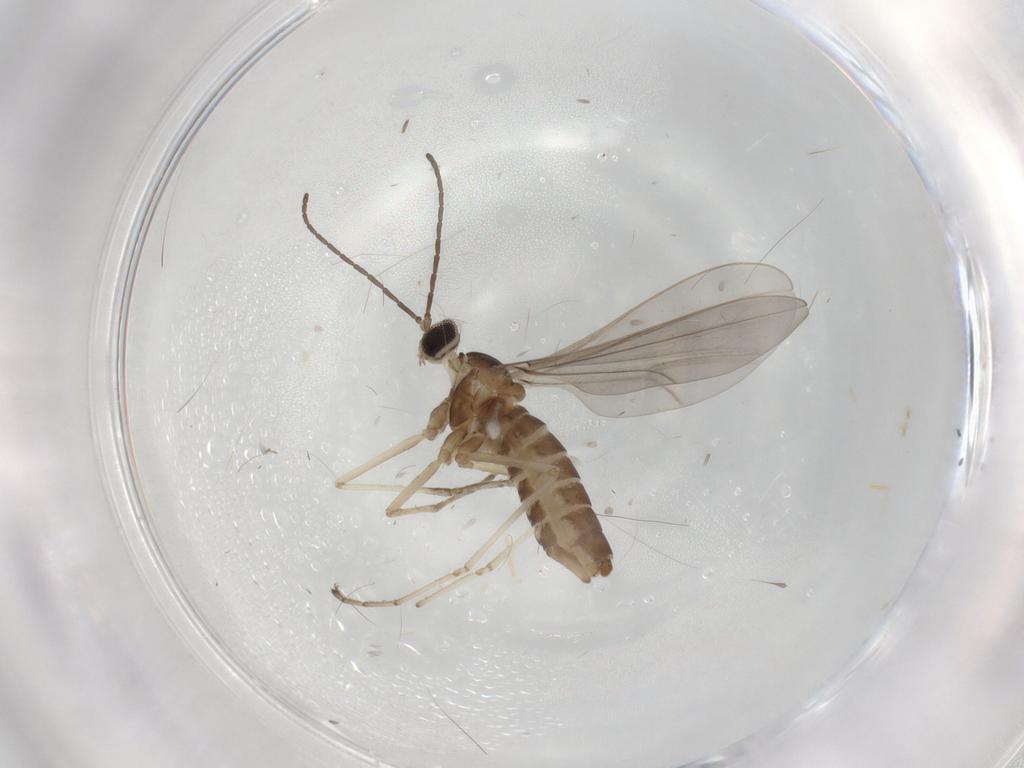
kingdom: Animalia
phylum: Arthropoda
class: Insecta
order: Diptera
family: Cecidomyiidae
